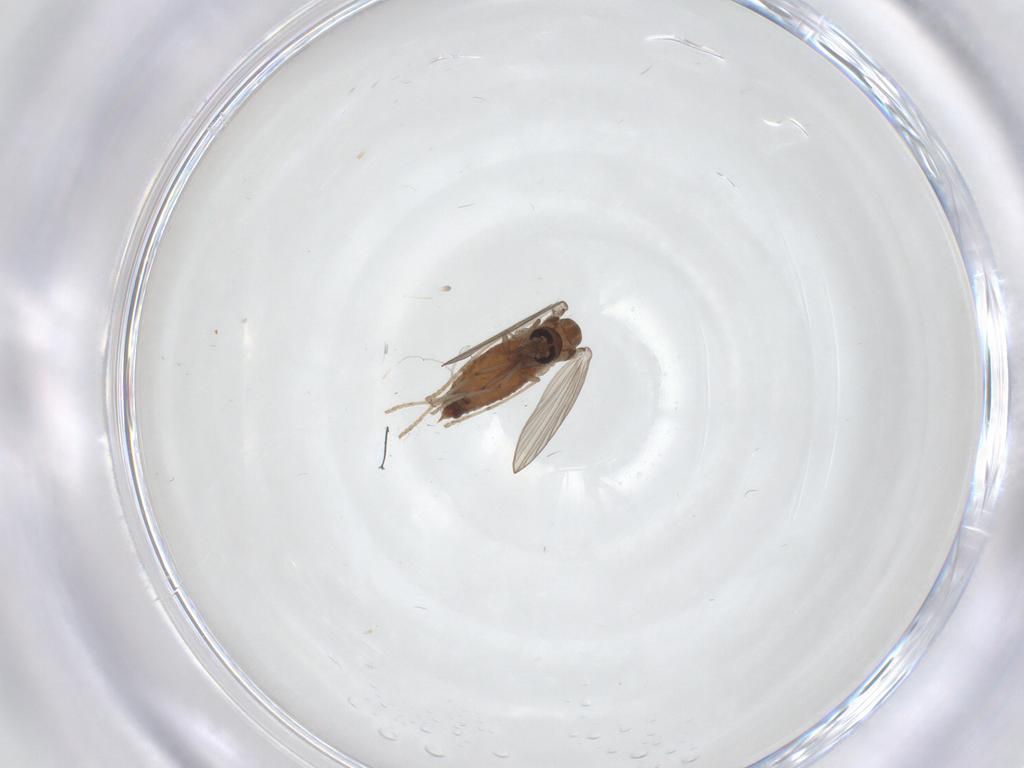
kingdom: Animalia
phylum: Arthropoda
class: Insecta
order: Diptera
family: Psychodidae
